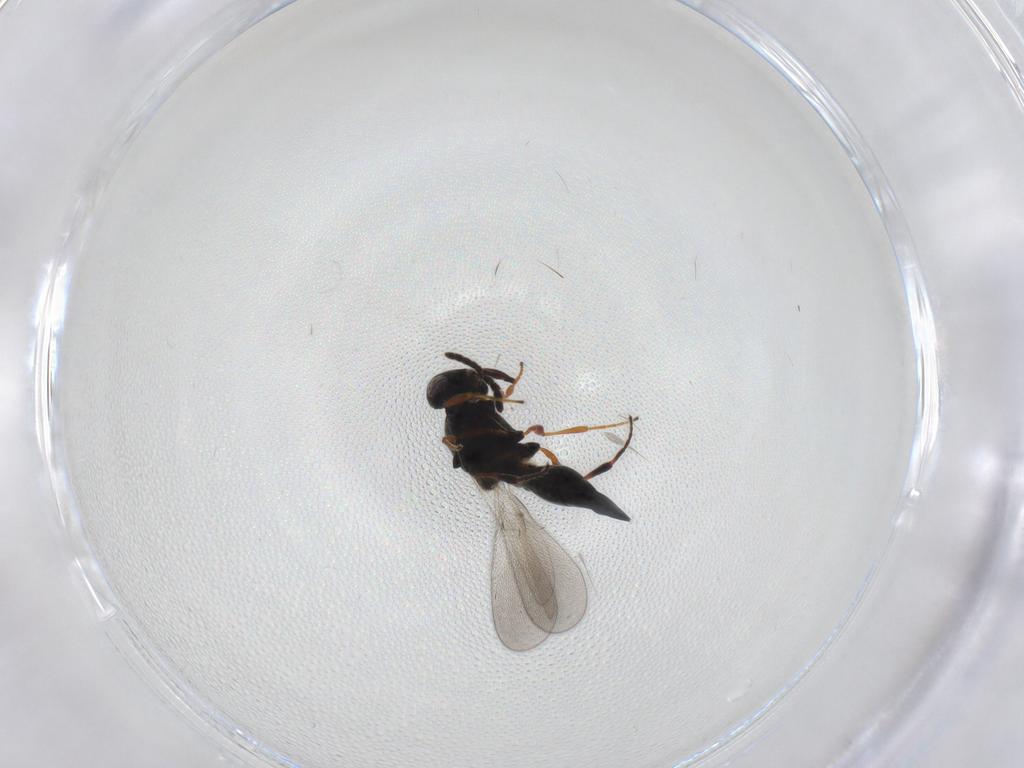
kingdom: Animalia
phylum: Arthropoda
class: Insecta
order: Hymenoptera
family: Platygastridae
